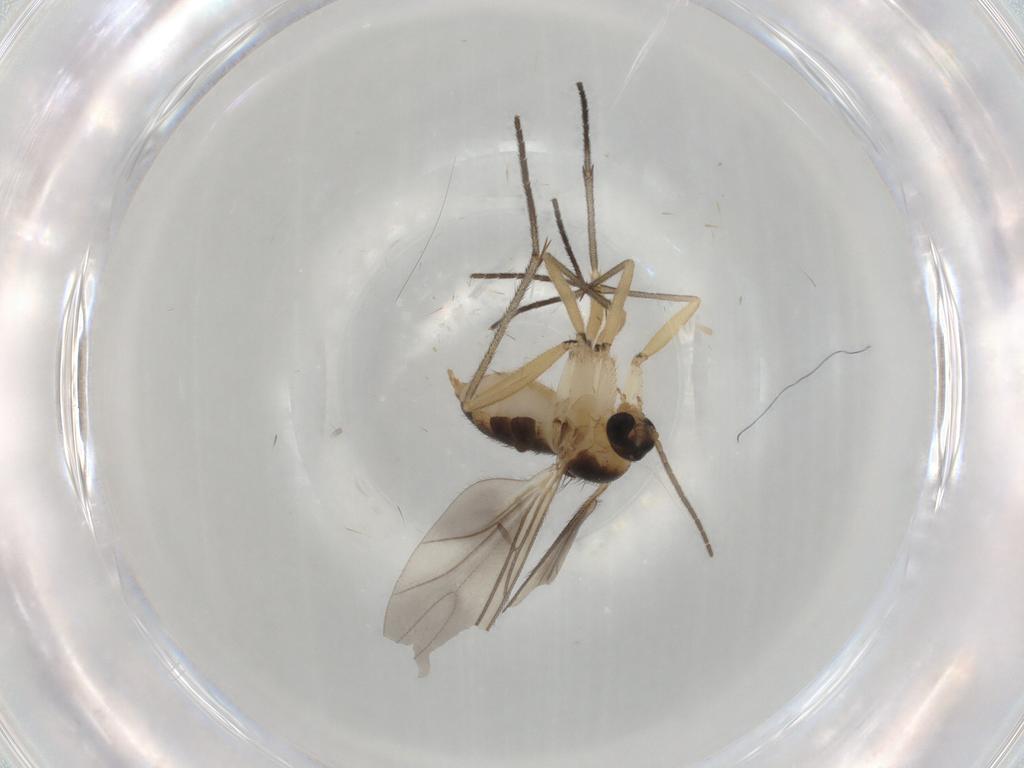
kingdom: Animalia
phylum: Arthropoda
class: Insecta
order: Diptera
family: Sciaridae
